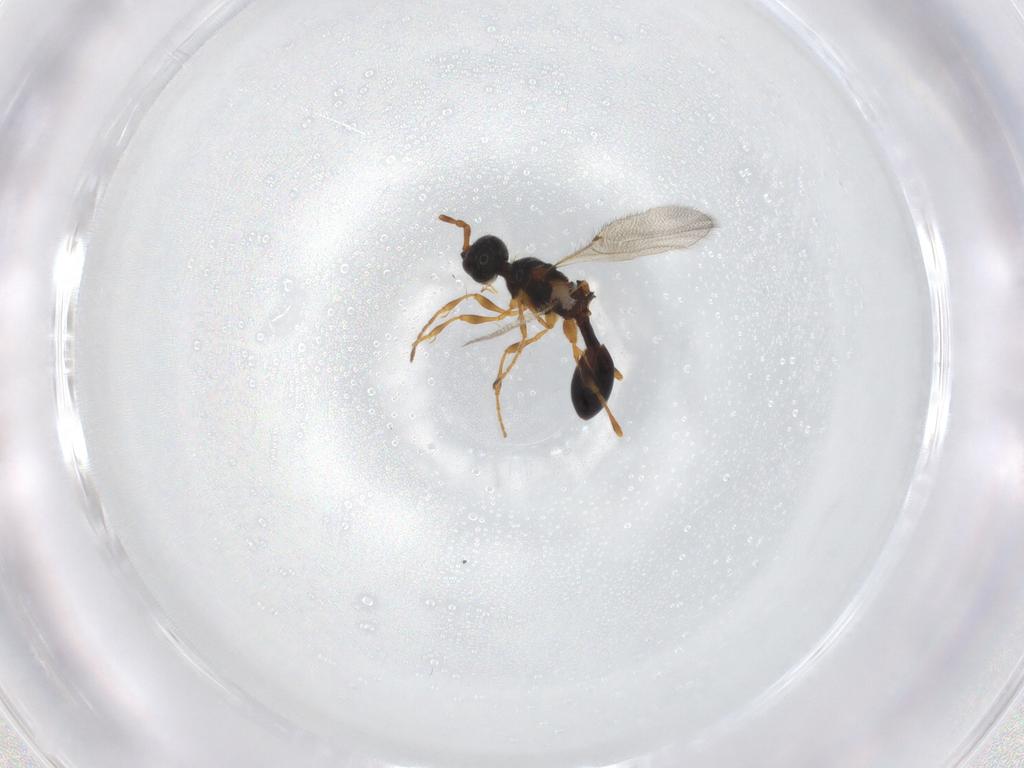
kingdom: Animalia
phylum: Arthropoda
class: Insecta
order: Hymenoptera
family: Diapriidae
